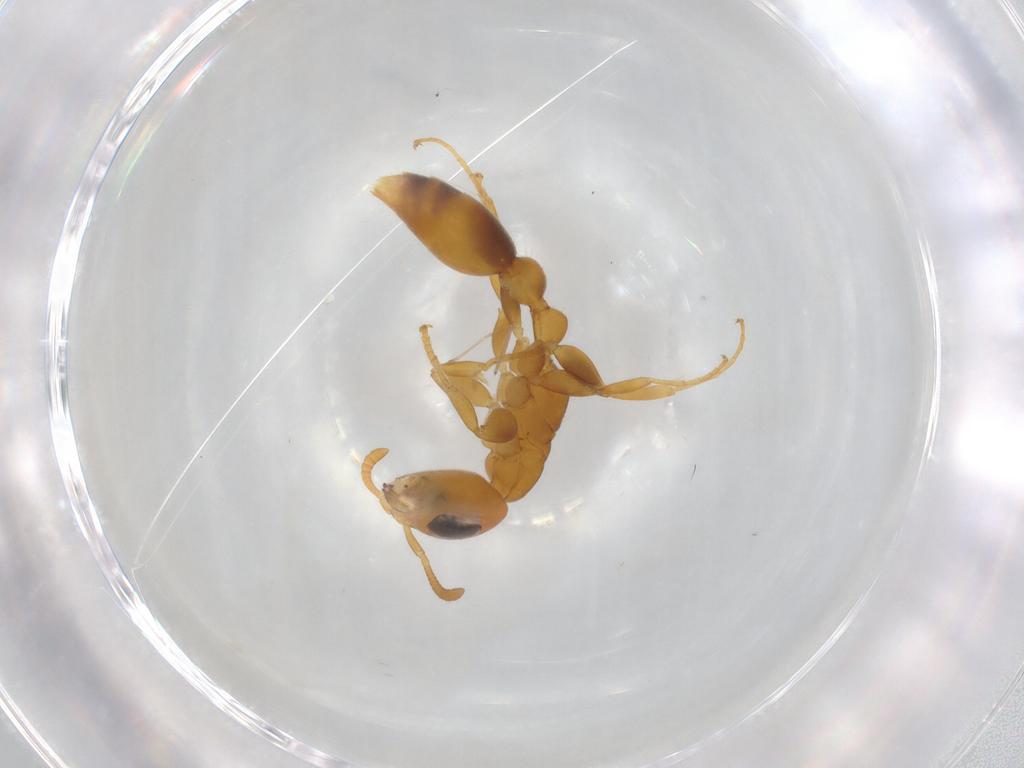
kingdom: Animalia
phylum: Arthropoda
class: Insecta
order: Hymenoptera
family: Formicidae
